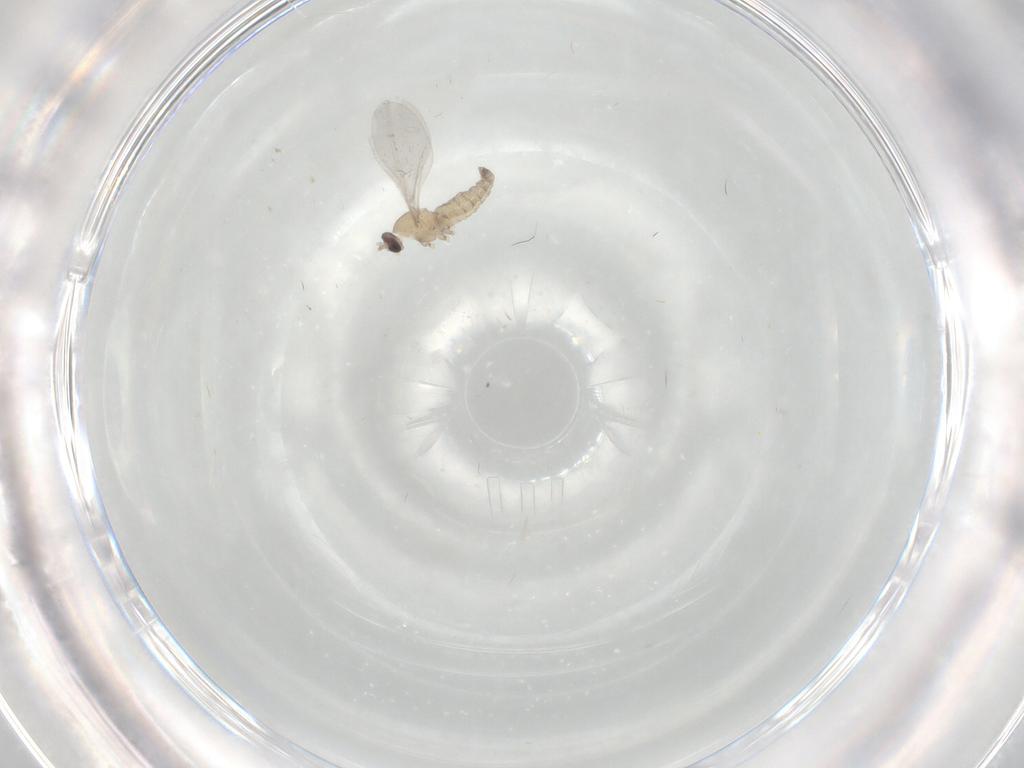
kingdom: Animalia
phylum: Arthropoda
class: Insecta
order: Diptera
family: Cecidomyiidae
